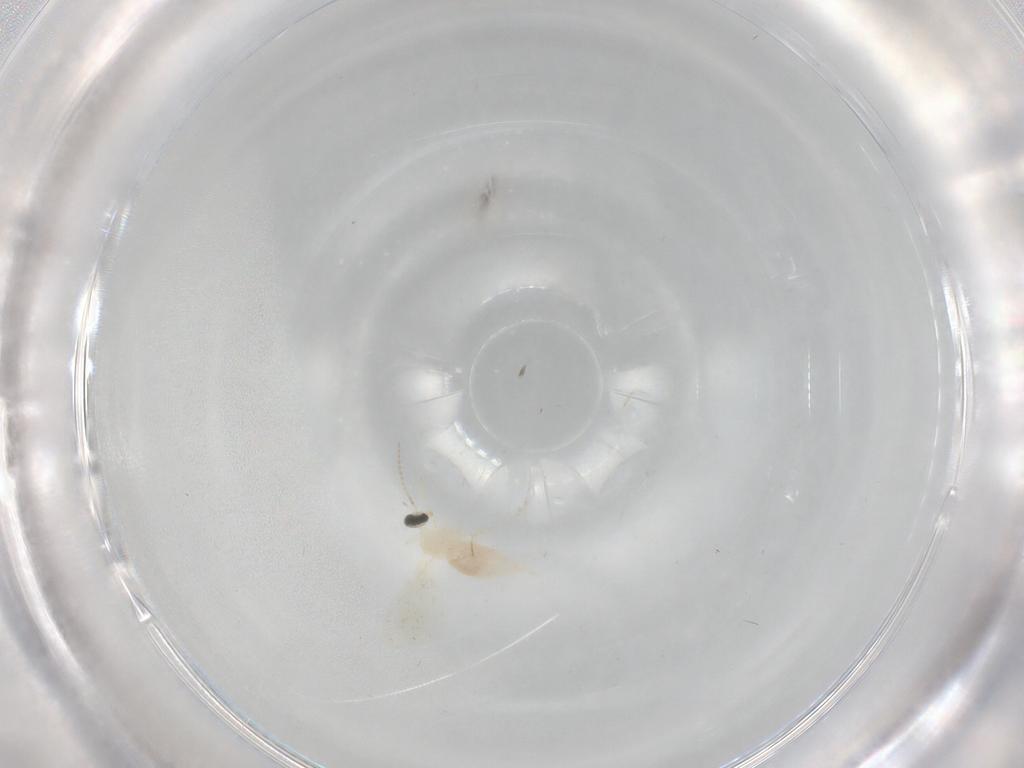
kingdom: Animalia
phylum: Arthropoda
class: Insecta
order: Diptera
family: Cecidomyiidae
